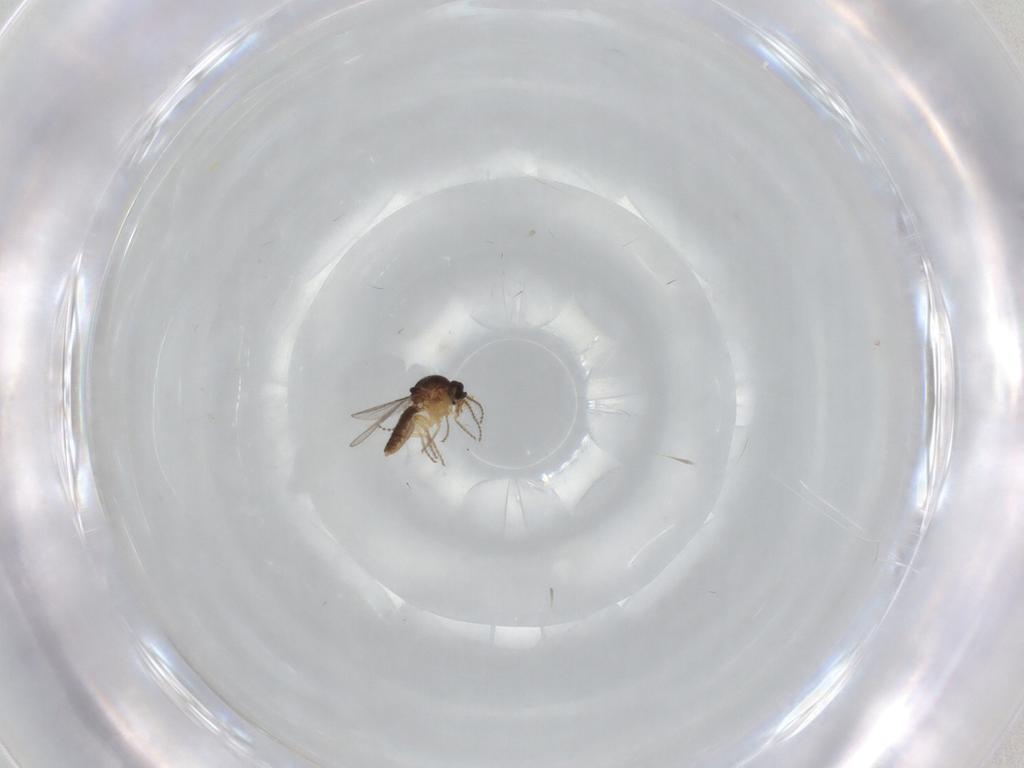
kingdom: Animalia
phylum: Arthropoda
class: Insecta
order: Diptera
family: Ceratopogonidae
